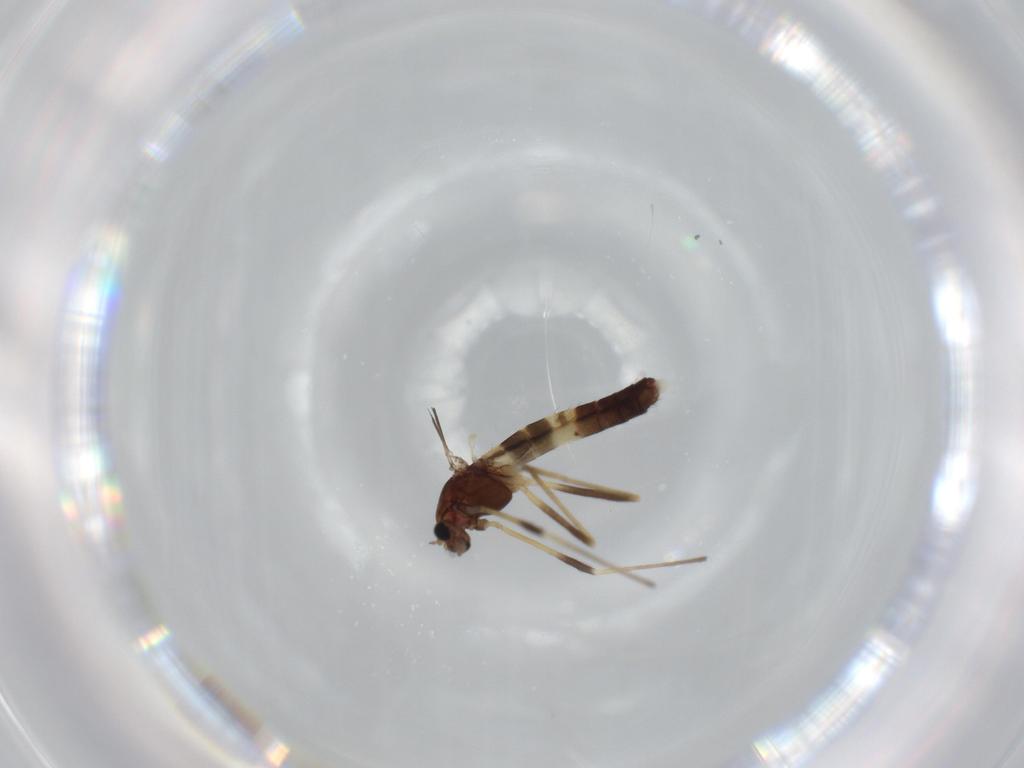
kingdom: Animalia
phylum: Arthropoda
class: Insecta
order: Diptera
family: Chironomidae
